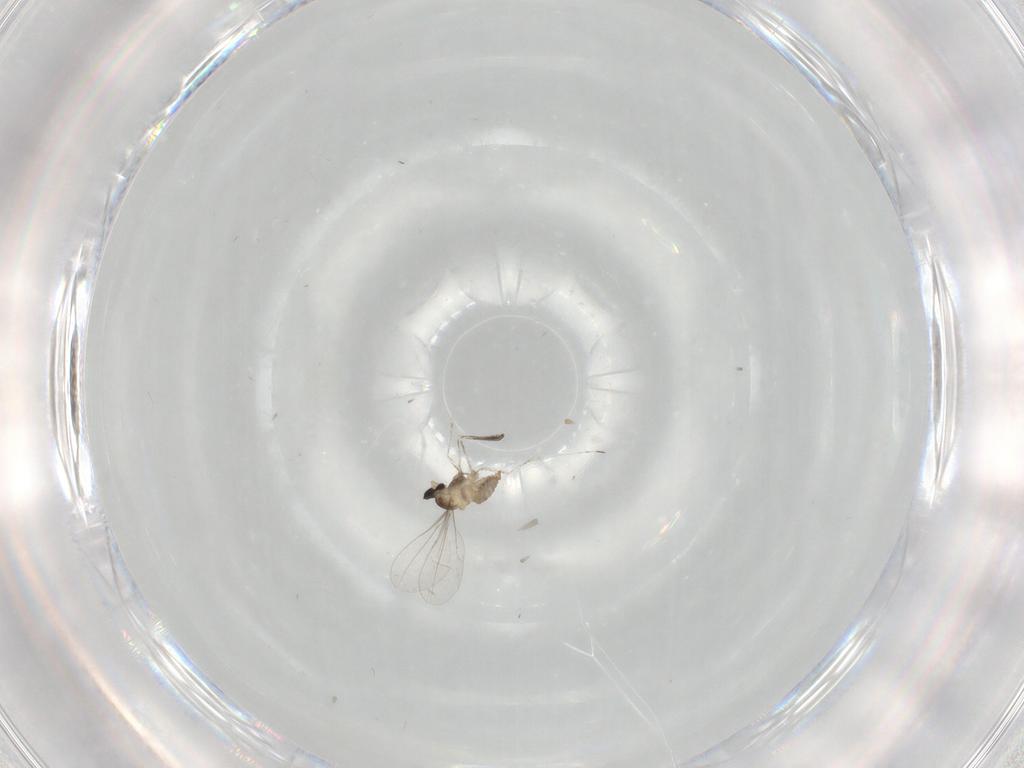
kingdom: Animalia
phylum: Arthropoda
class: Insecta
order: Diptera
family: Cecidomyiidae
